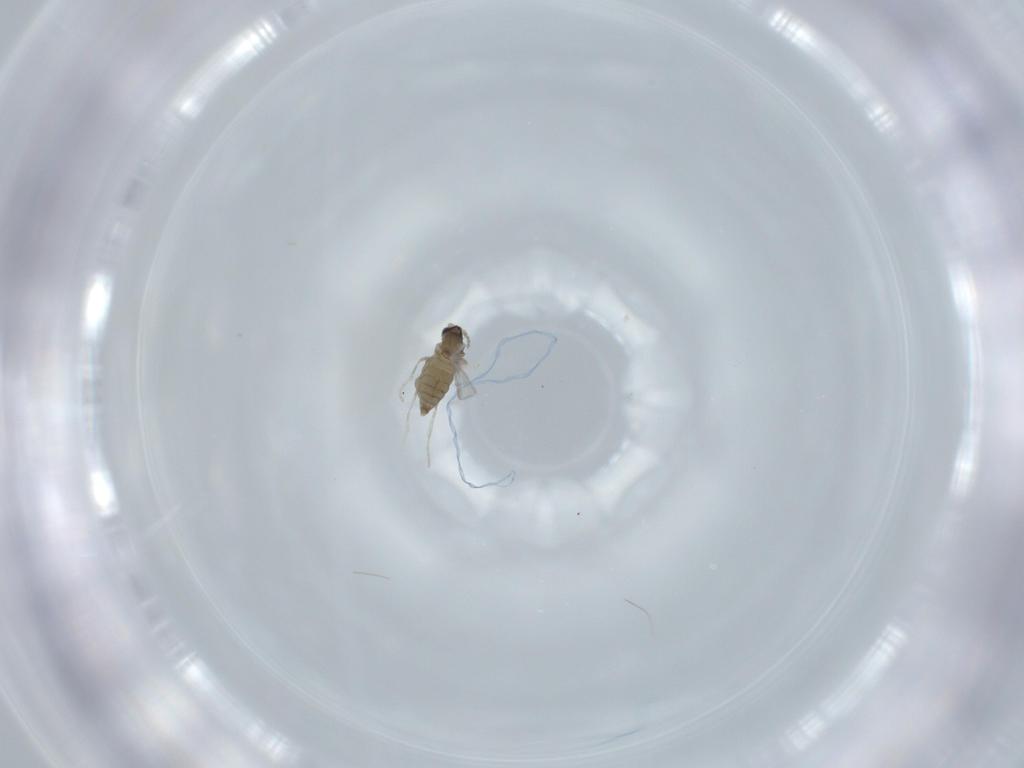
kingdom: Animalia
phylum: Arthropoda
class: Insecta
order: Diptera
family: Cecidomyiidae
